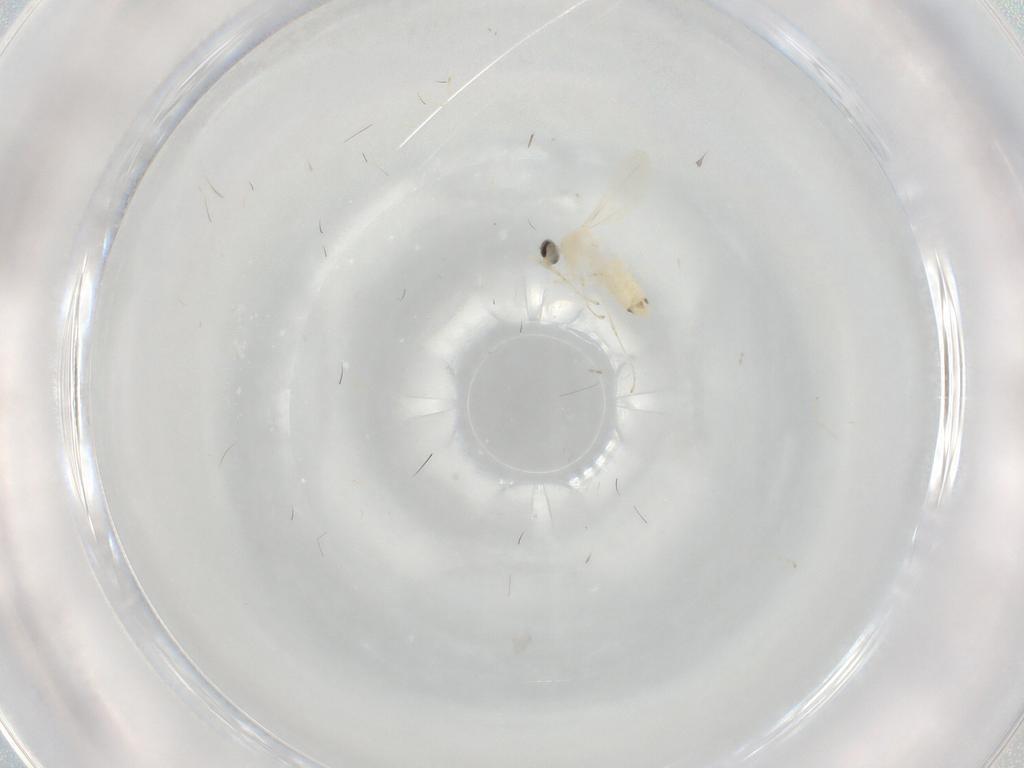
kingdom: Animalia
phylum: Arthropoda
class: Insecta
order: Diptera
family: Cecidomyiidae
